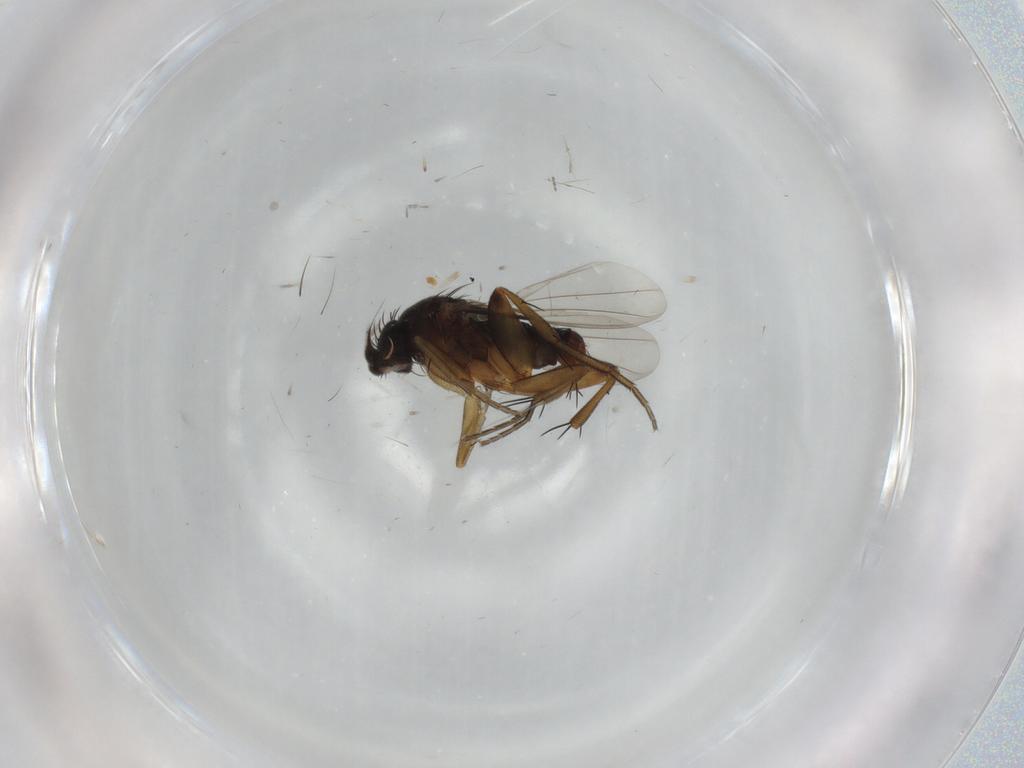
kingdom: Animalia
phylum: Arthropoda
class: Insecta
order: Diptera
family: Phoridae
